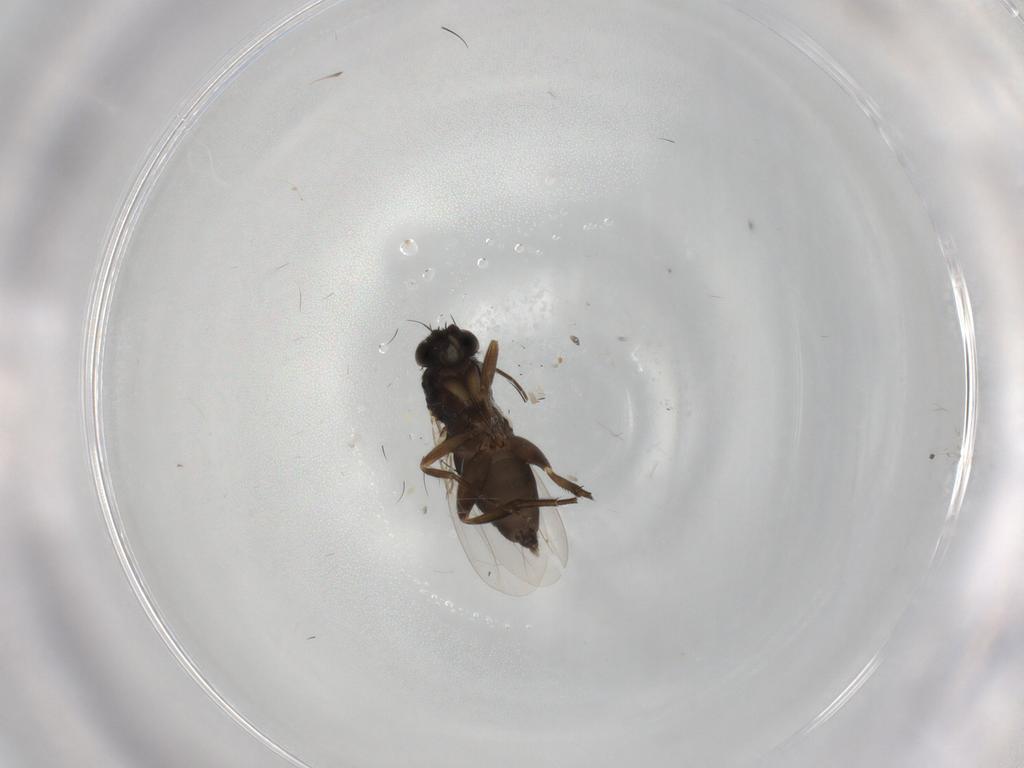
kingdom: Animalia
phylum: Arthropoda
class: Insecta
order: Diptera
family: Phoridae
